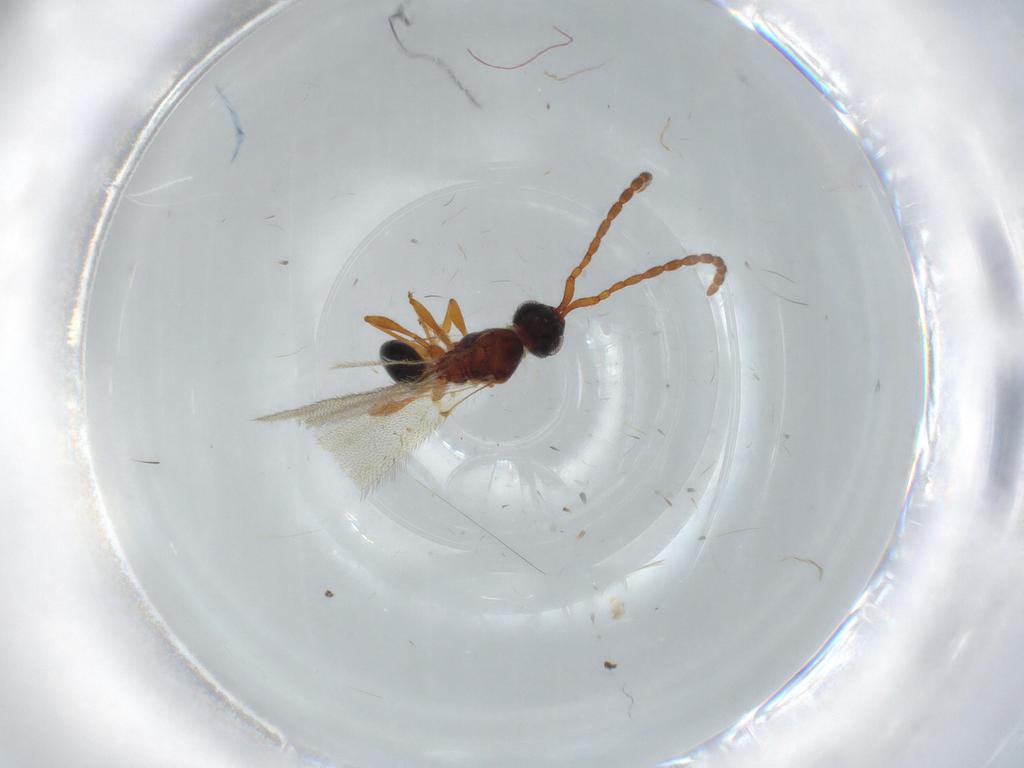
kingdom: Animalia
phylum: Arthropoda
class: Insecta
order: Hymenoptera
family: Diapriidae
